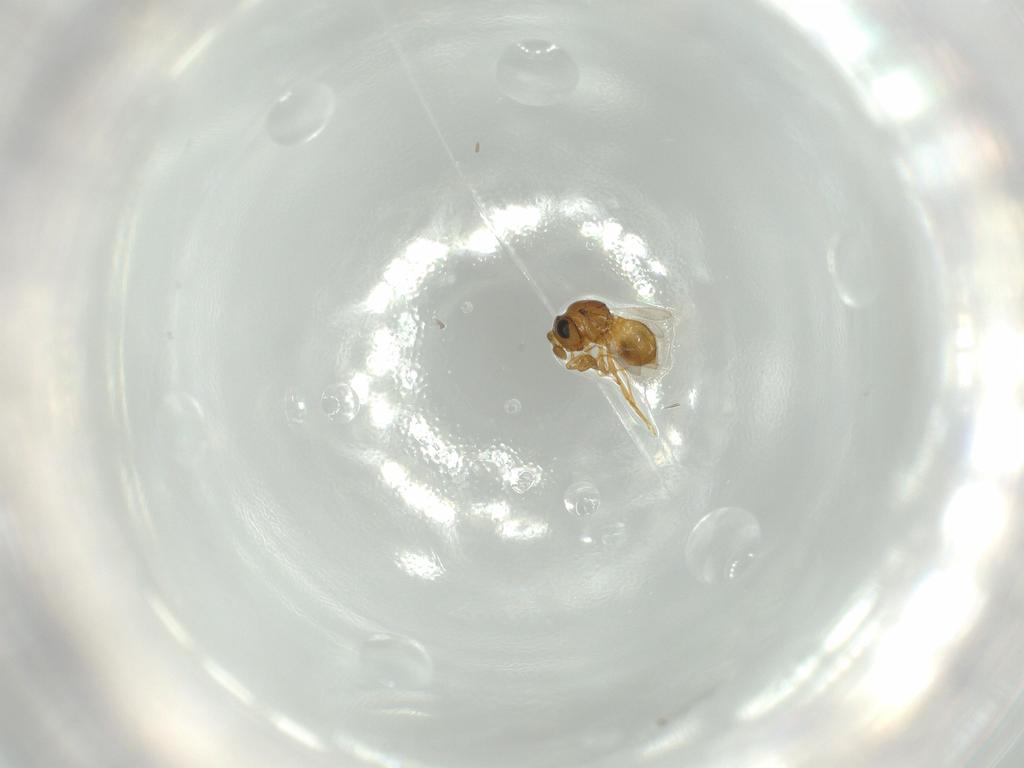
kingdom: Animalia
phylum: Arthropoda
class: Insecta
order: Hymenoptera
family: Scelionidae
